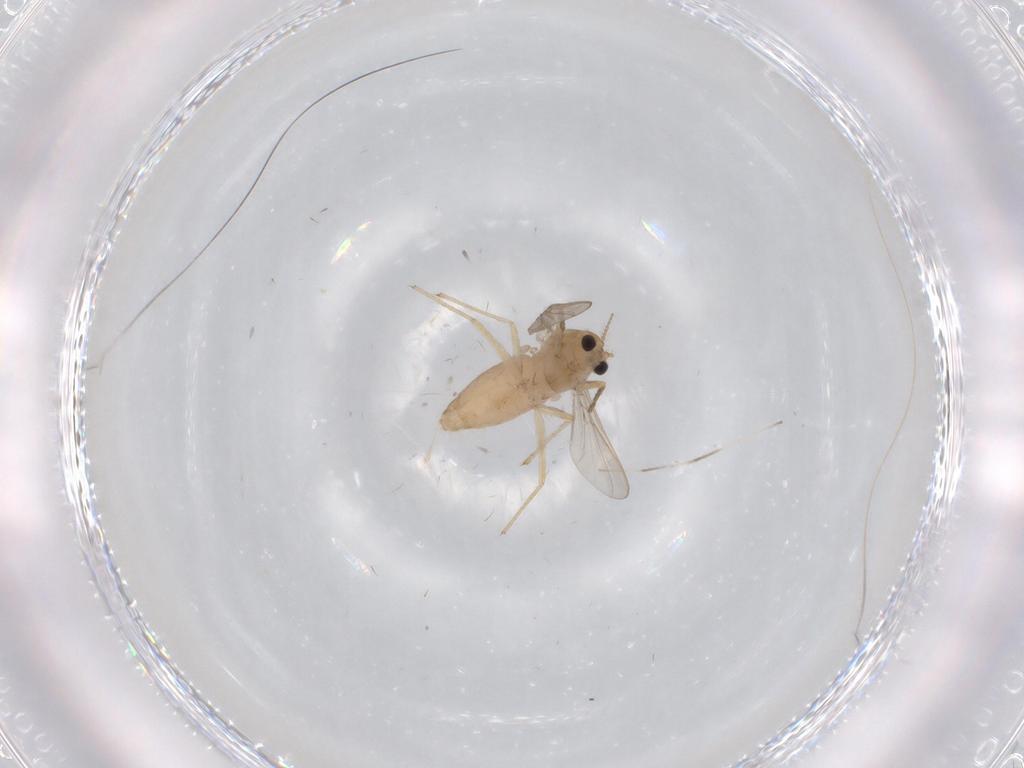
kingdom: Animalia
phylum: Arthropoda
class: Insecta
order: Diptera
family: Chironomidae
